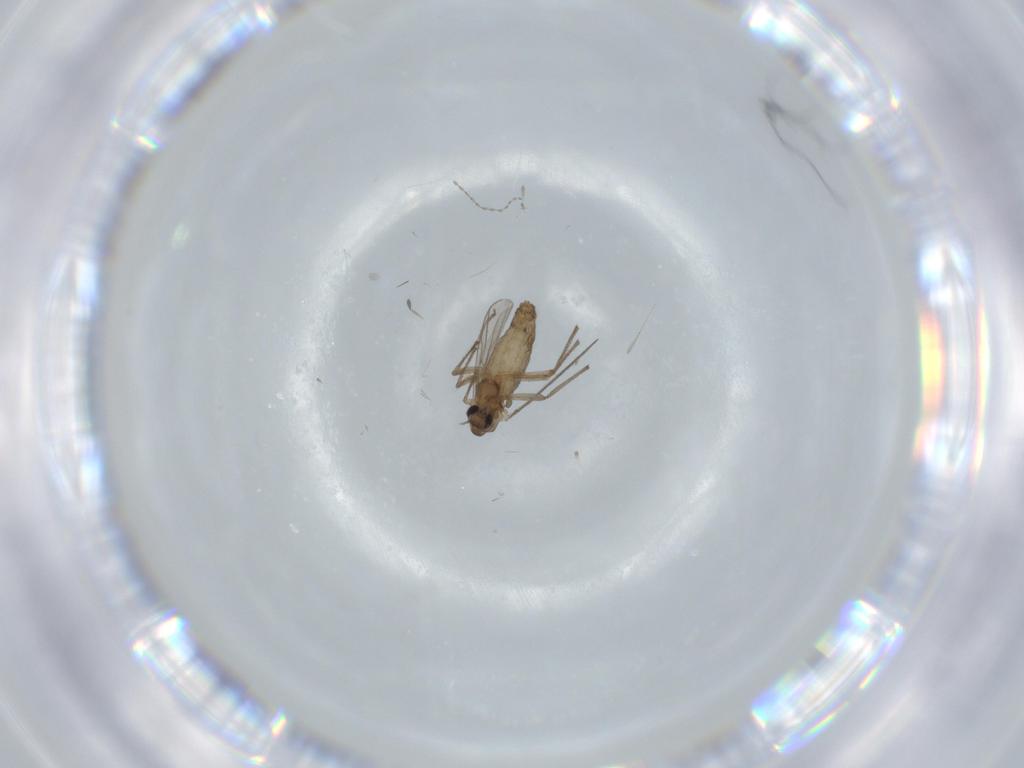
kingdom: Animalia
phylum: Arthropoda
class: Insecta
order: Diptera
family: Chironomidae
